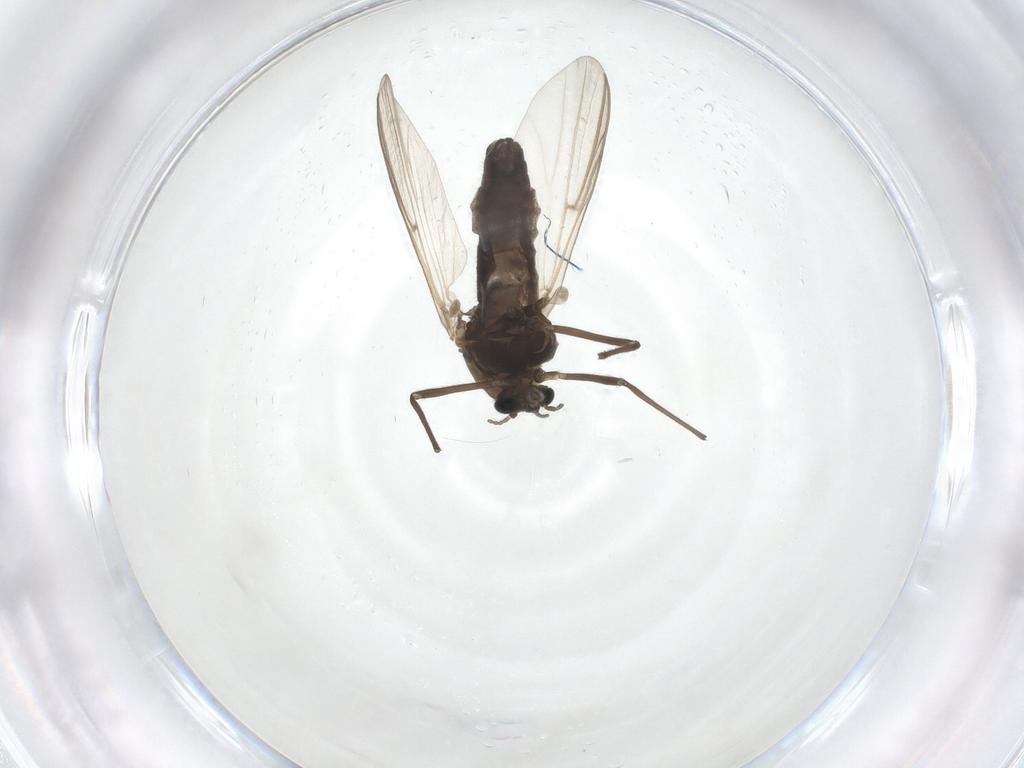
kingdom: Animalia
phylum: Arthropoda
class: Insecta
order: Diptera
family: Chironomidae
